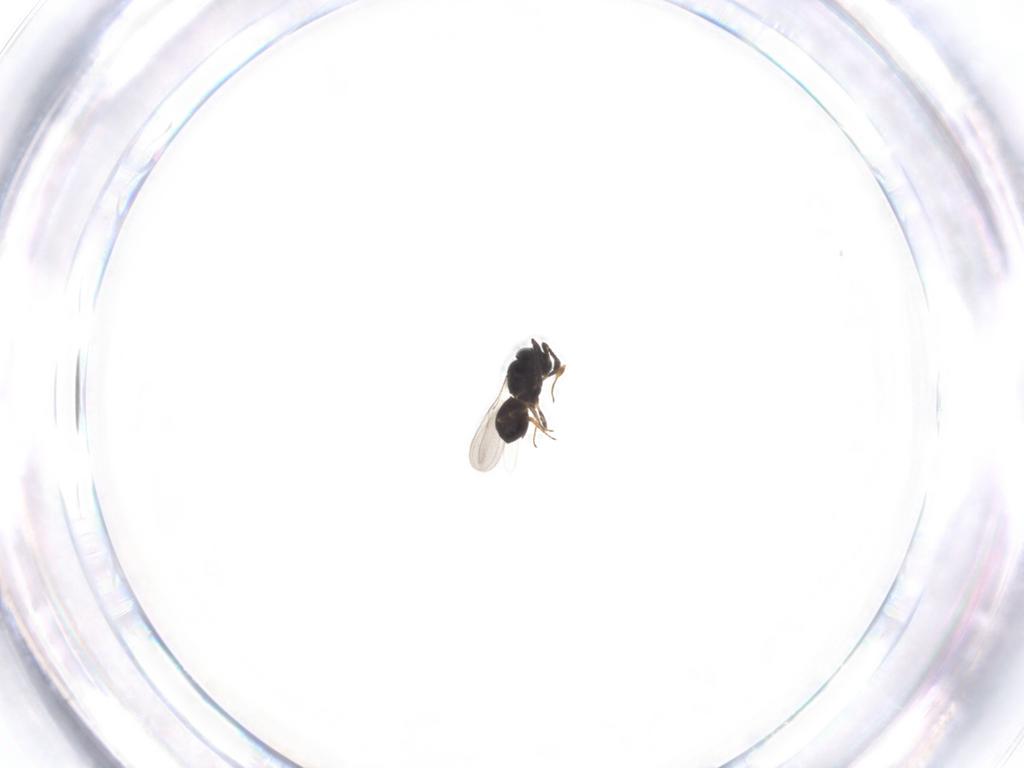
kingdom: Animalia
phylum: Arthropoda
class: Insecta
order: Hymenoptera
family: Scelionidae
